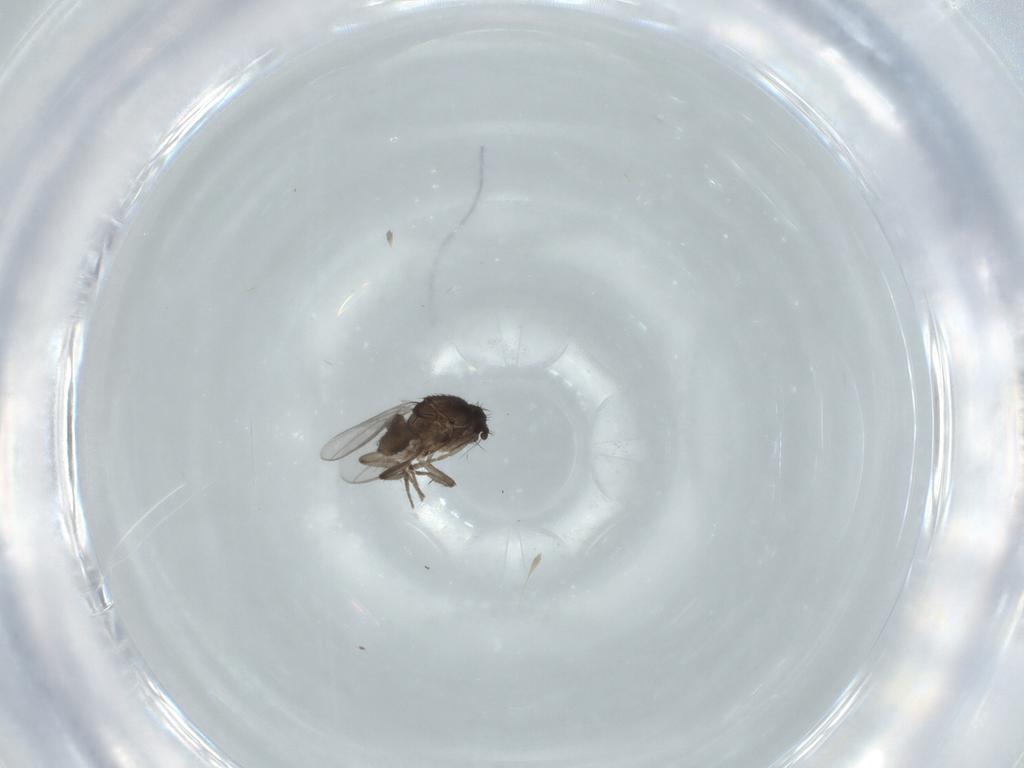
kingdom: Animalia
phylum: Arthropoda
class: Insecta
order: Diptera
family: Sphaeroceridae
